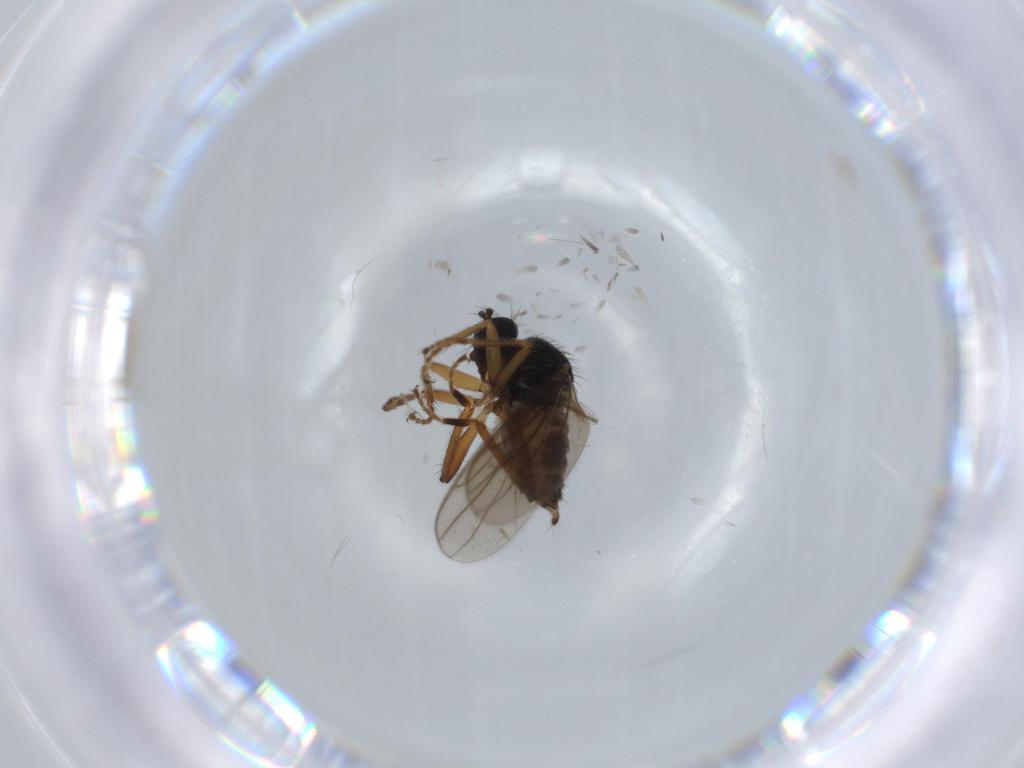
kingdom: Animalia
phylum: Arthropoda
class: Insecta
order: Diptera
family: Hybotidae
